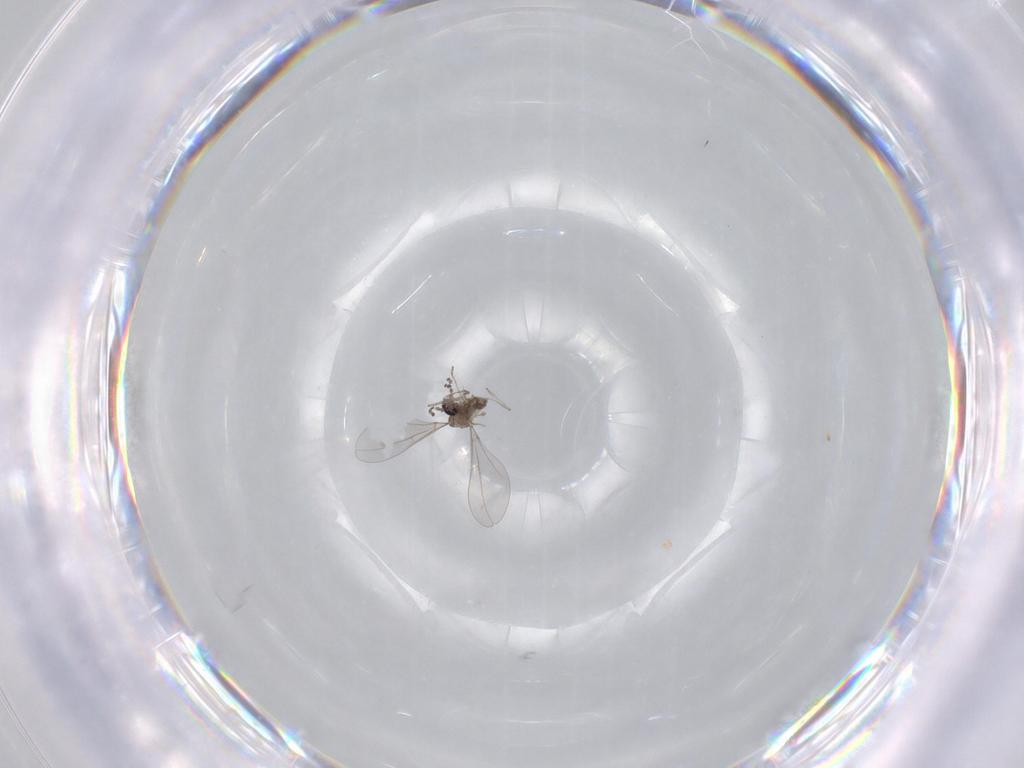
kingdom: Animalia
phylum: Arthropoda
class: Insecta
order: Diptera
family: Cecidomyiidae
